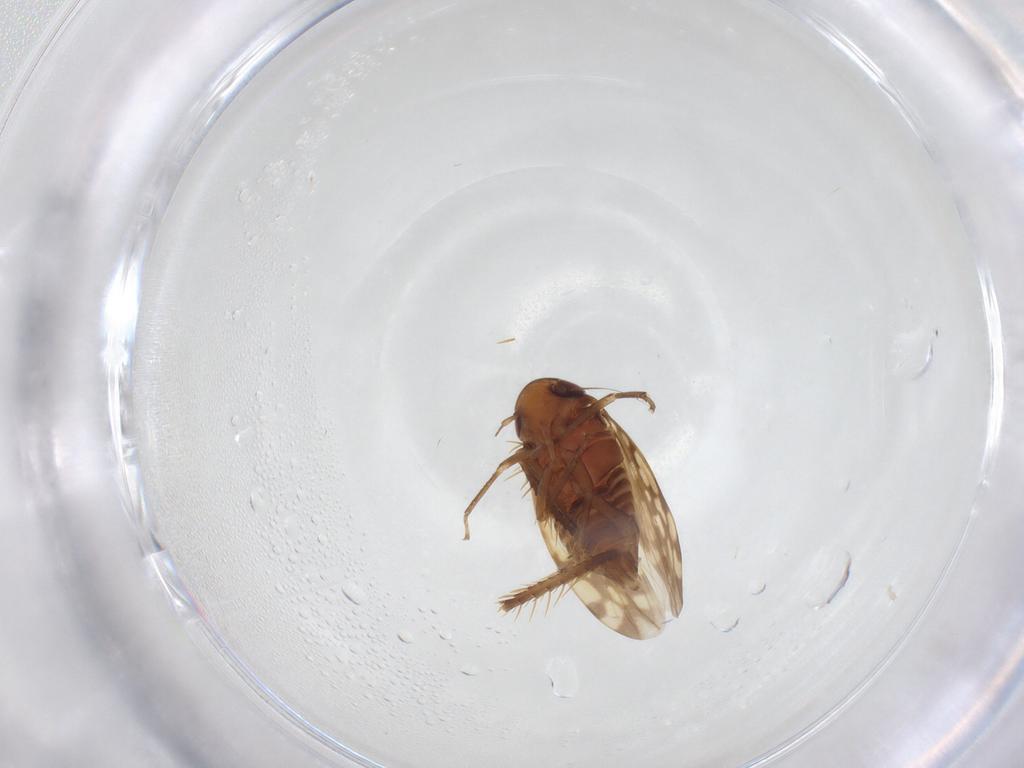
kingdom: Animalia
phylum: Arthropoda
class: Insecta
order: Hemiptera
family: Cicadellidae
